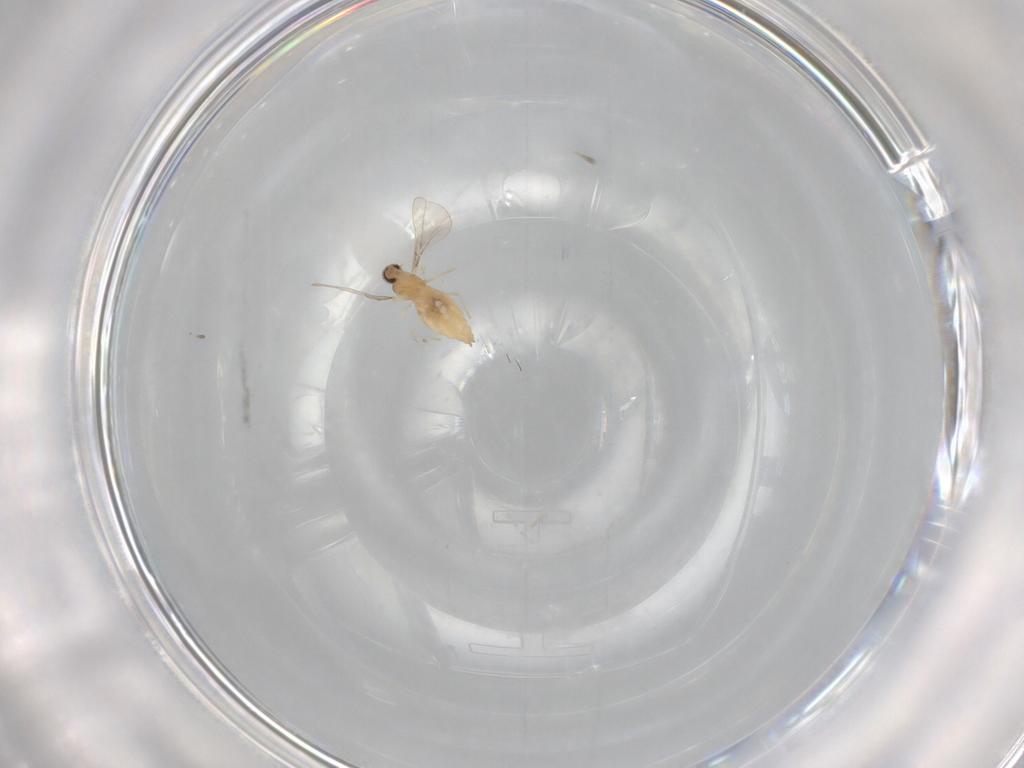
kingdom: Animalia
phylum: Arthropoda
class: Insecta
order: Diptera
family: Cecidomyiidae
